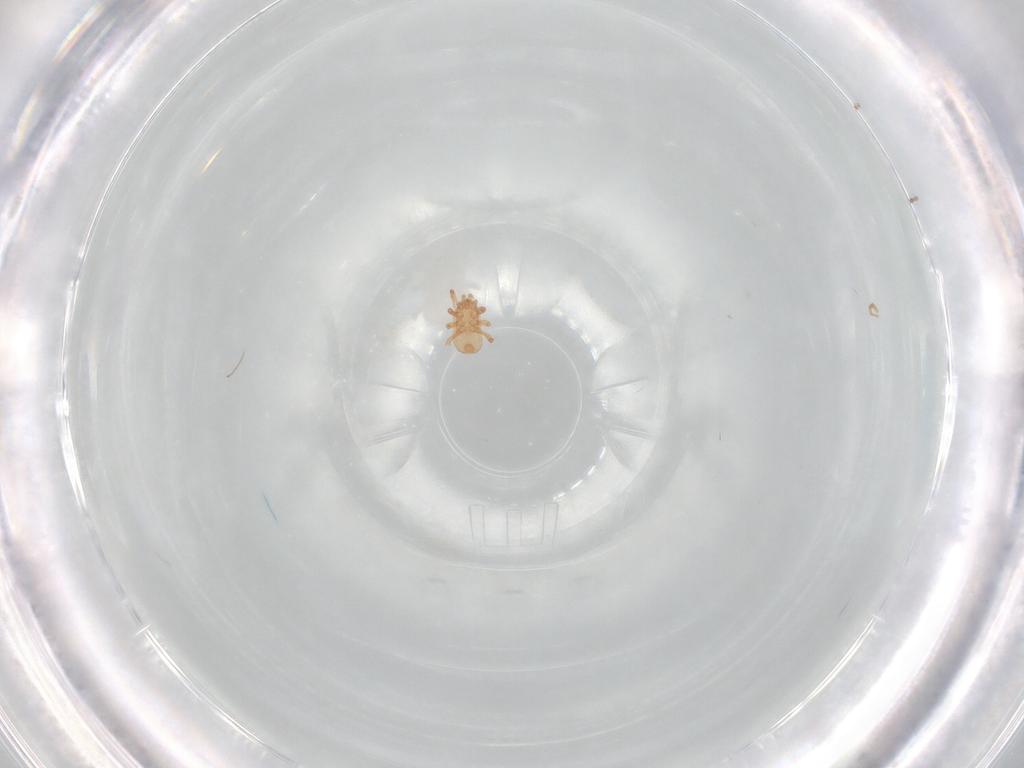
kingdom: Animalia
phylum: Arthropoda
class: Arachnida
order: Mesostigmata
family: Ascidae
